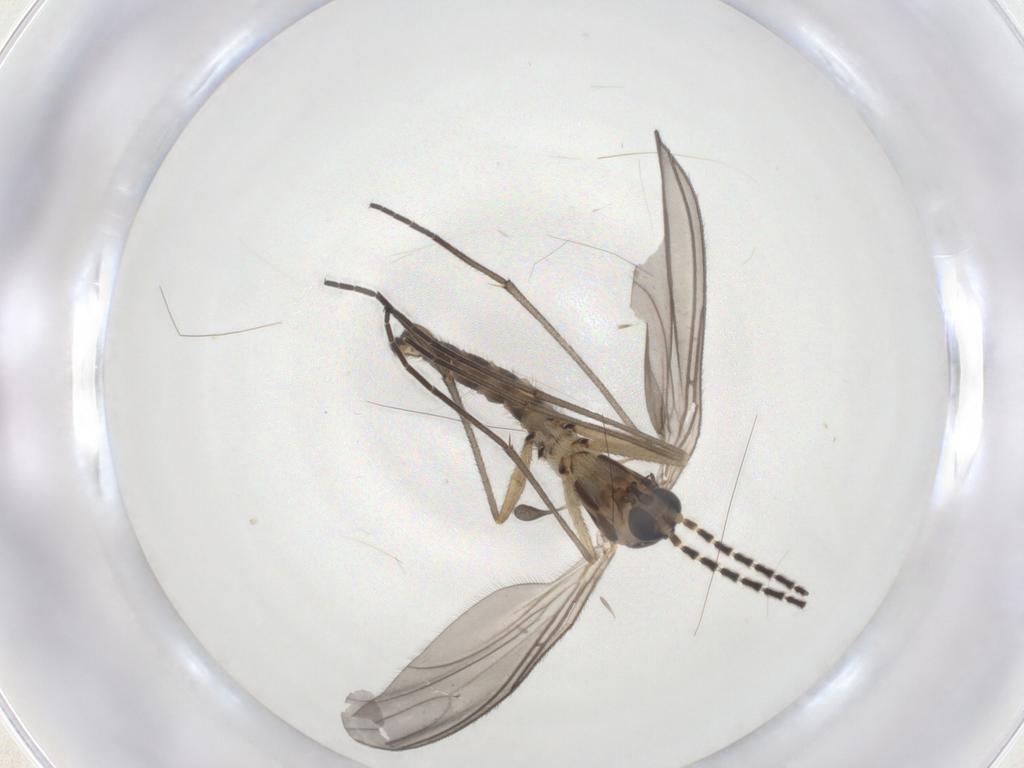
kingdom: Animalia
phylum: Arthropoda
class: Insecta
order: Diptera
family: Sciaridae
